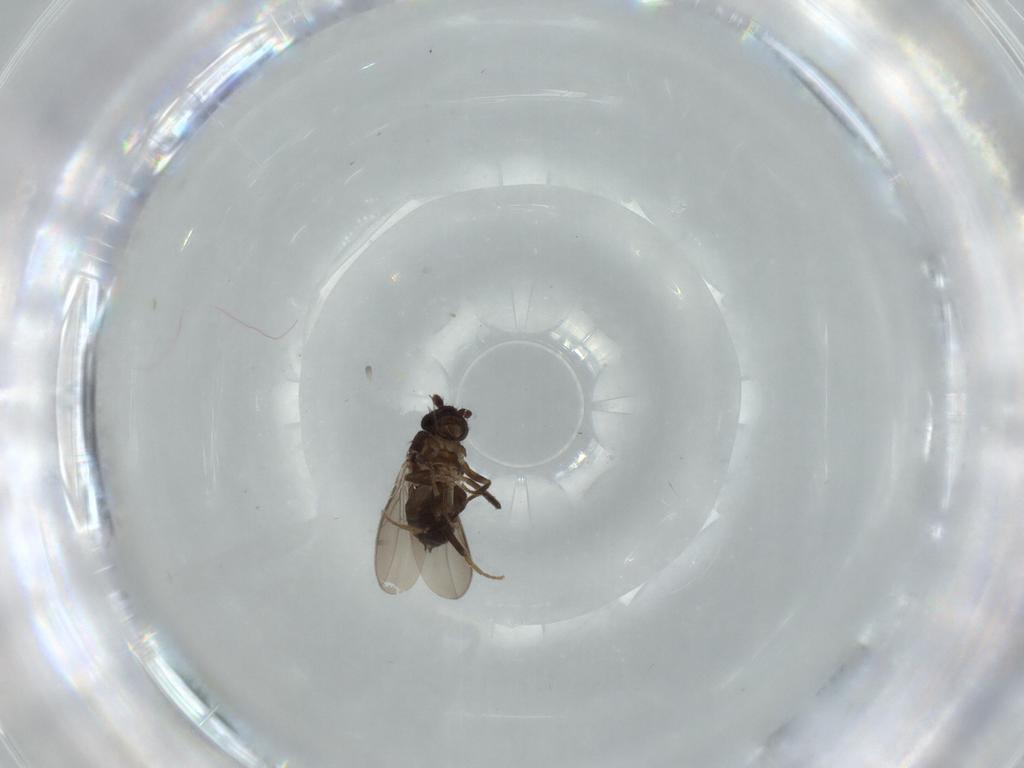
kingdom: Animalia
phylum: Arthropoda
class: Insecta
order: Diptera
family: Sphaeroceridae
